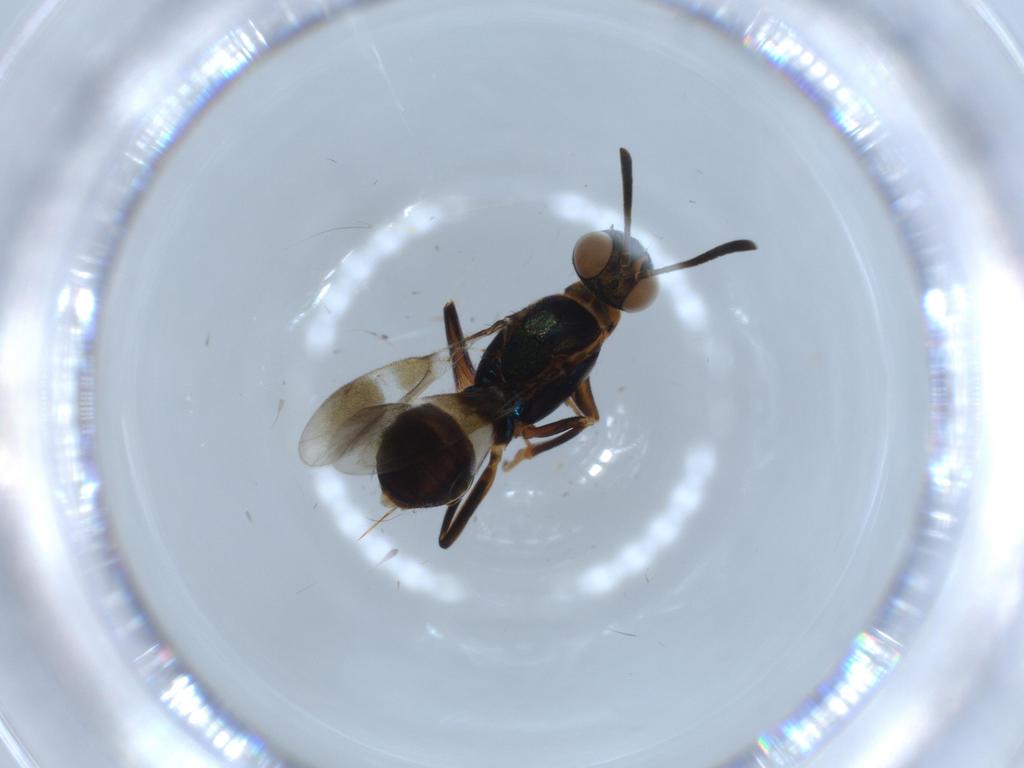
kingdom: Animalia
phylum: Arthropoda
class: Insecta
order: Hymenoptera
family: Eupelmidae
